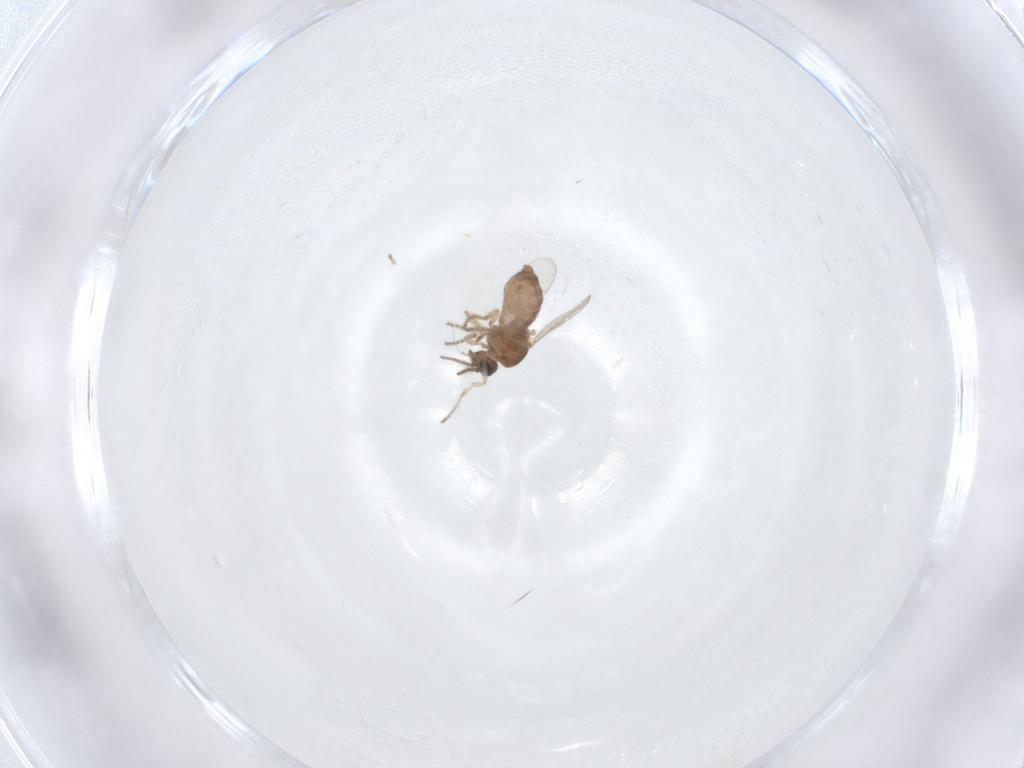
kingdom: Animalia
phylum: Arthropoda
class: Insecta
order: Diptera
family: Ceratopogonidae
